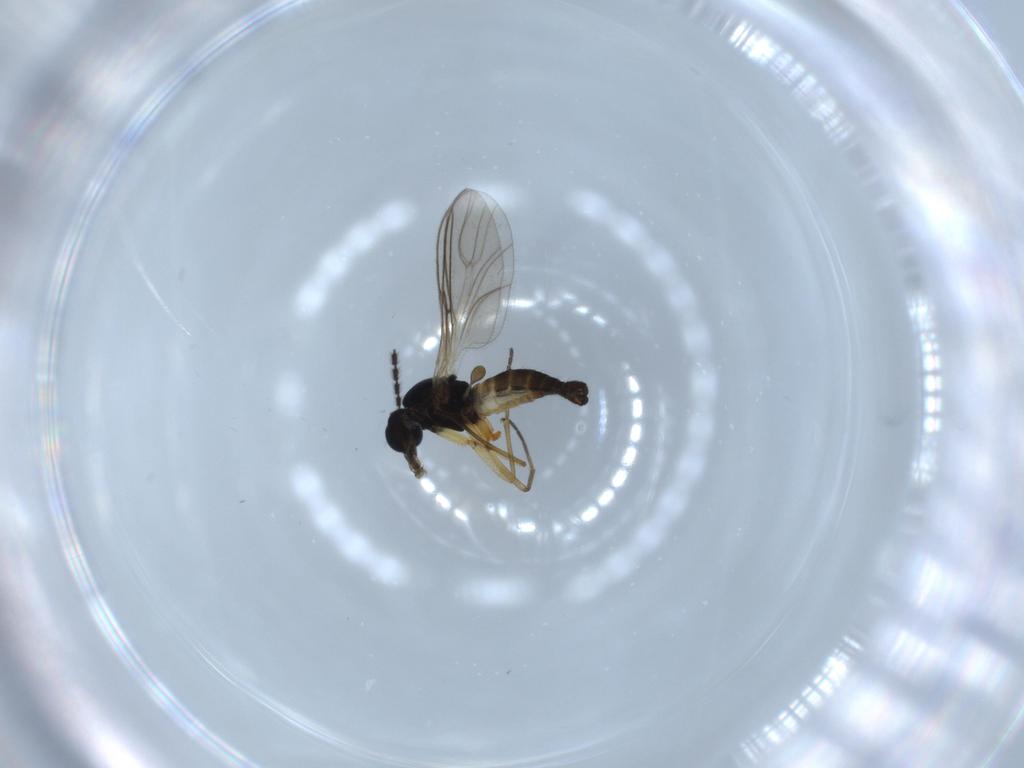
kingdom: Animalia
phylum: Arthropoda
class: Insecta
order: Diptera
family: Sciaridae
